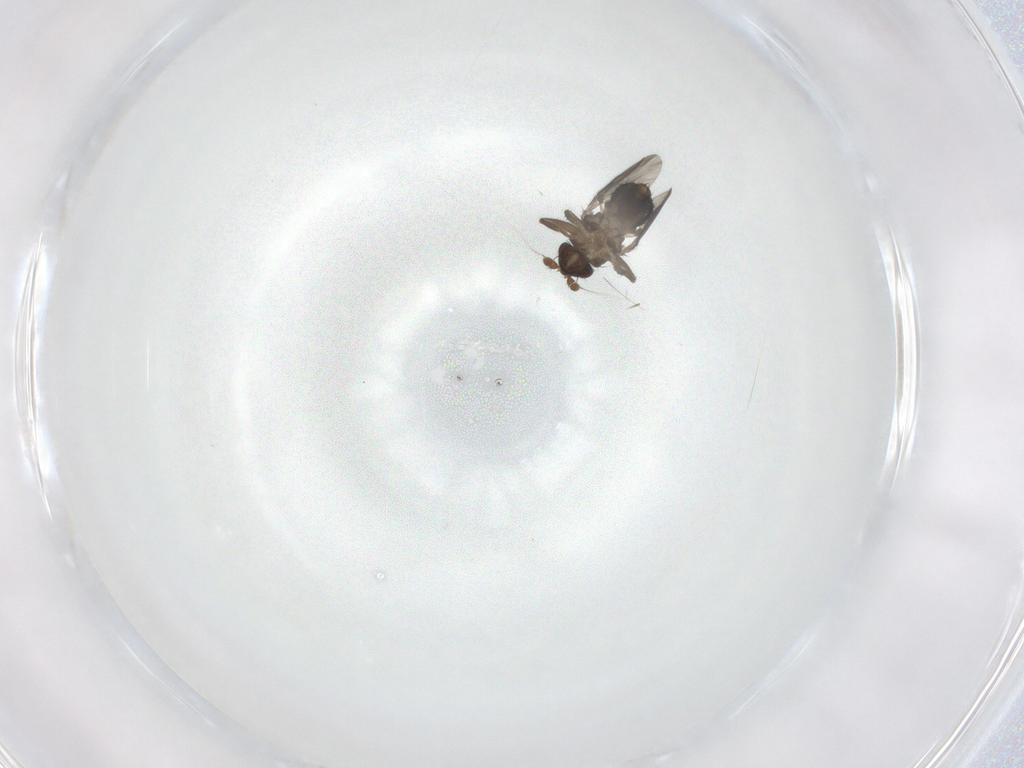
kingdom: Animalia
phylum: Arthropoda
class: Insecta
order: Diptera
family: Sphaeroceridae
